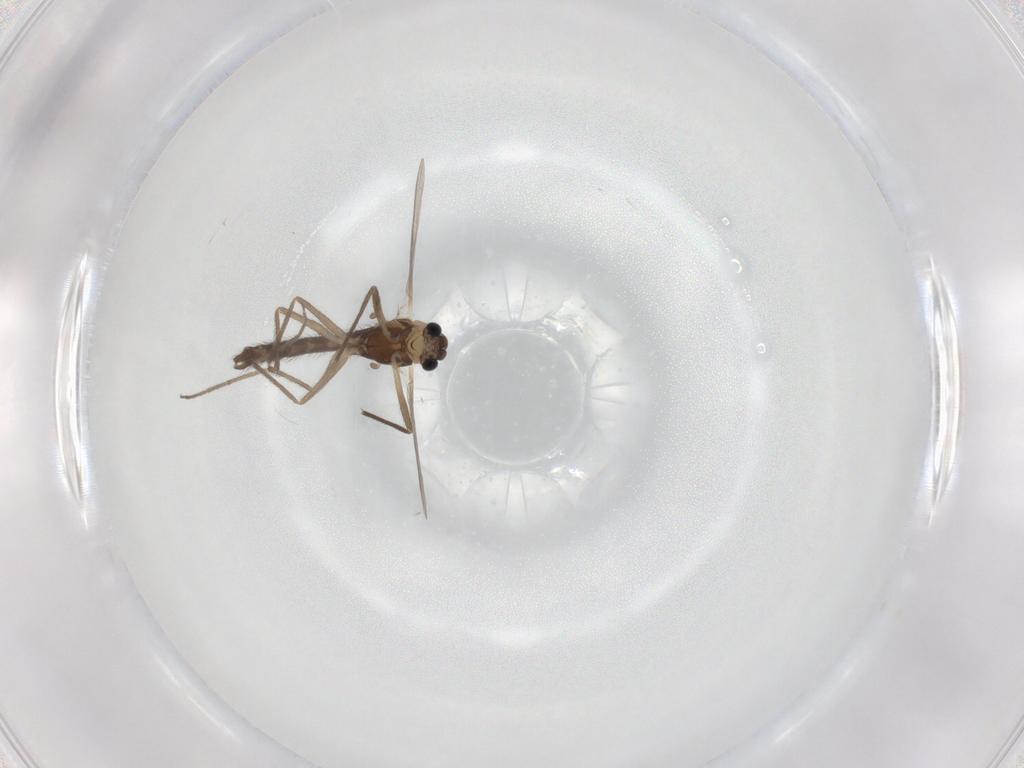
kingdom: Animalia
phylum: Arthropoda
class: Insecta
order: Diptera
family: Chironomidae
